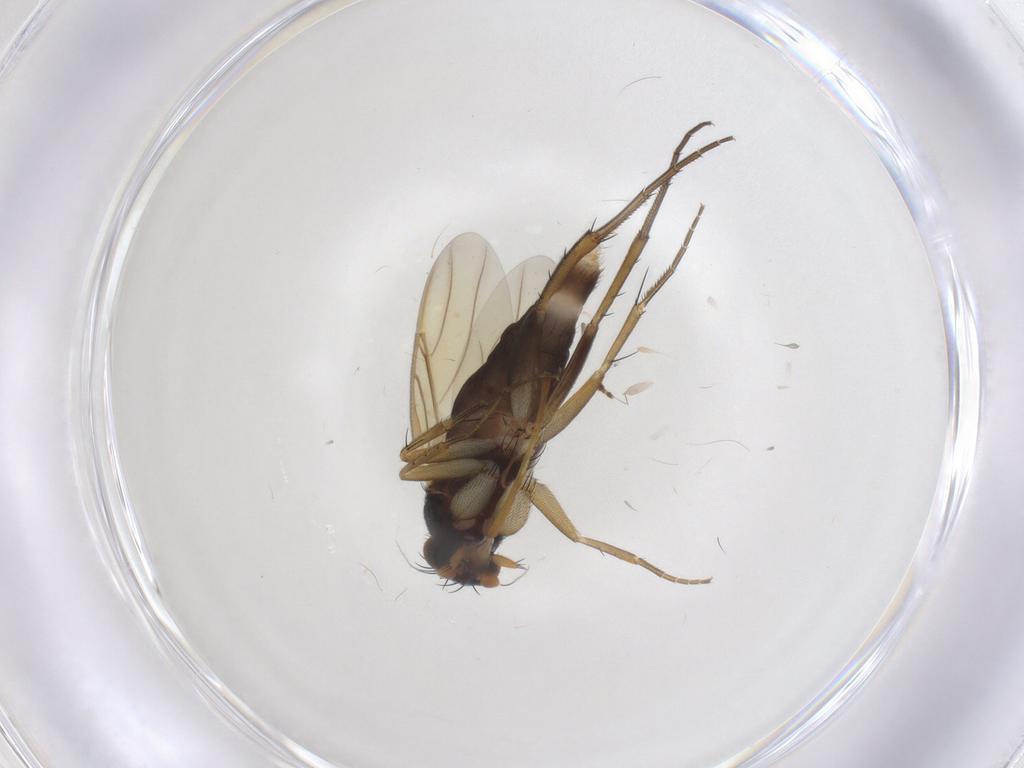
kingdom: Animalia
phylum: Arthropoda
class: Insecta
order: Diptera
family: Phoridae
